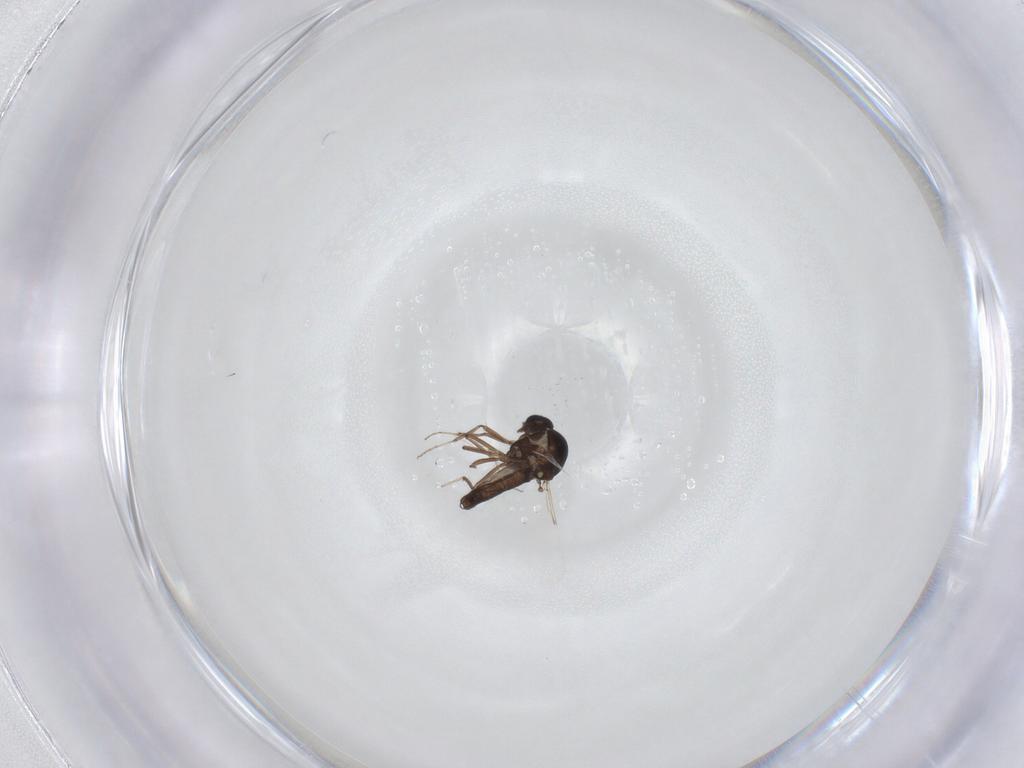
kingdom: Animalia
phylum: Arthropoda
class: Insecta
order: Diptera
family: Ceratopogonidae
